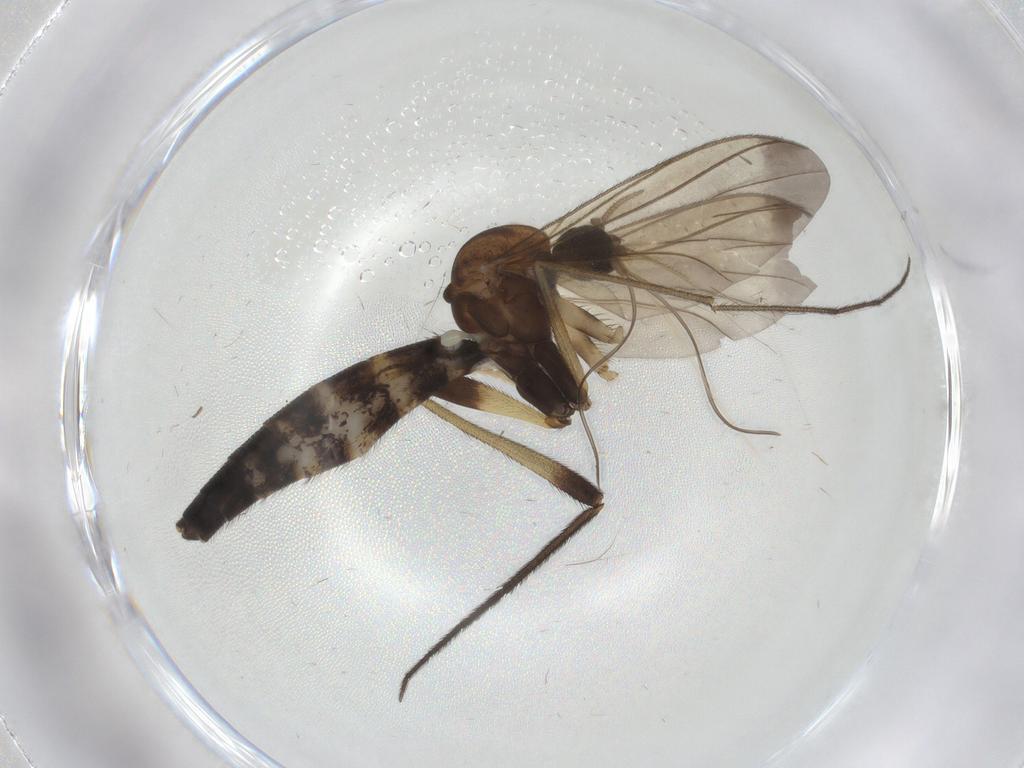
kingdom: Animalia
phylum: Arthropoda
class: Insecta
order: Diptera
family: Keroplatidae
